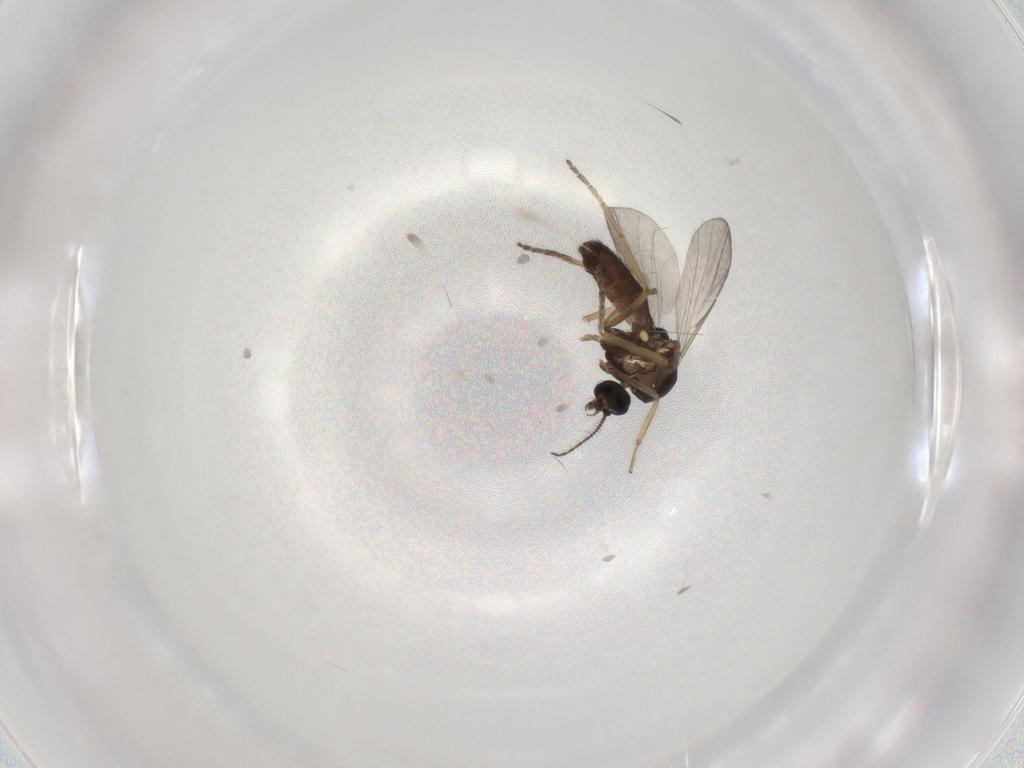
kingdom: Animalia
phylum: Arthropoda
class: Insecta
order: Diptera
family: Ceratopogonidae
